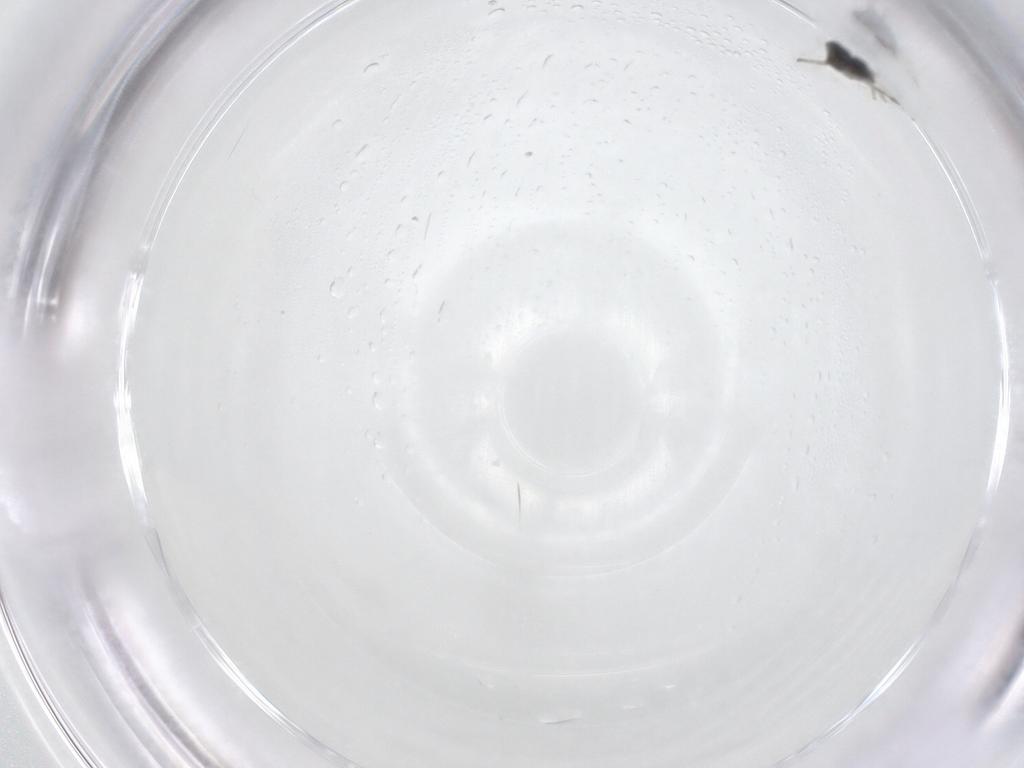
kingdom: Animalia
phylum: Arthropoda
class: Insecta
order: Diptera
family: Chironomidae
